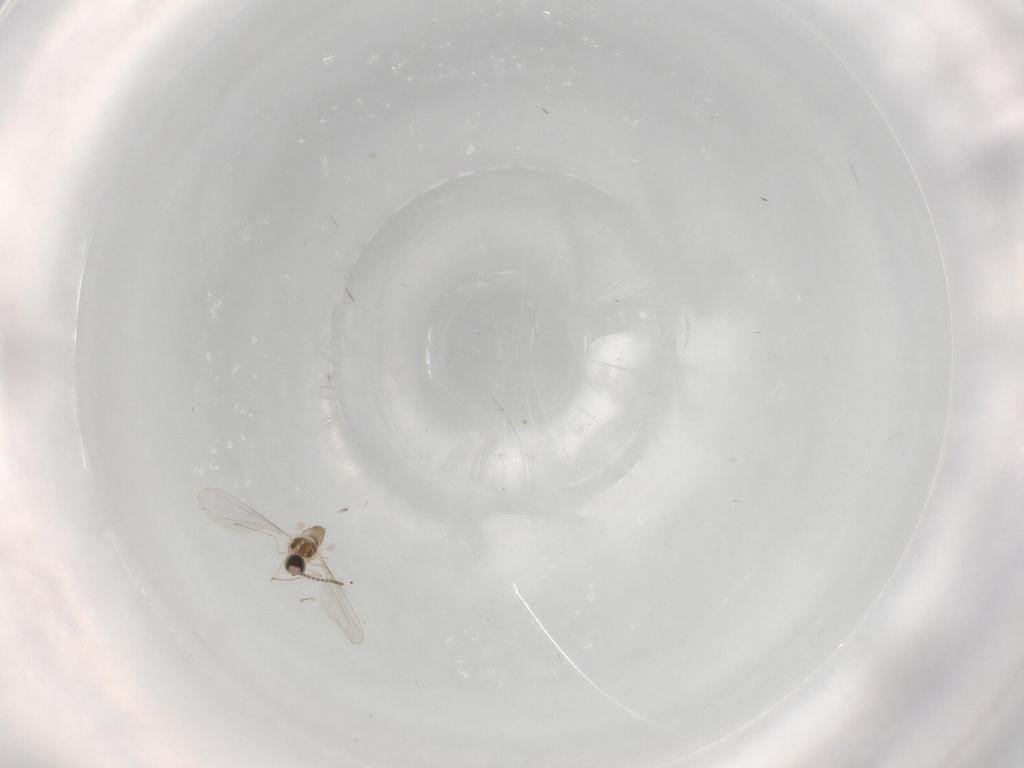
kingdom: Animalia
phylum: Arthropoda
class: Insecta
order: Diptera
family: Cecidomyiidae
